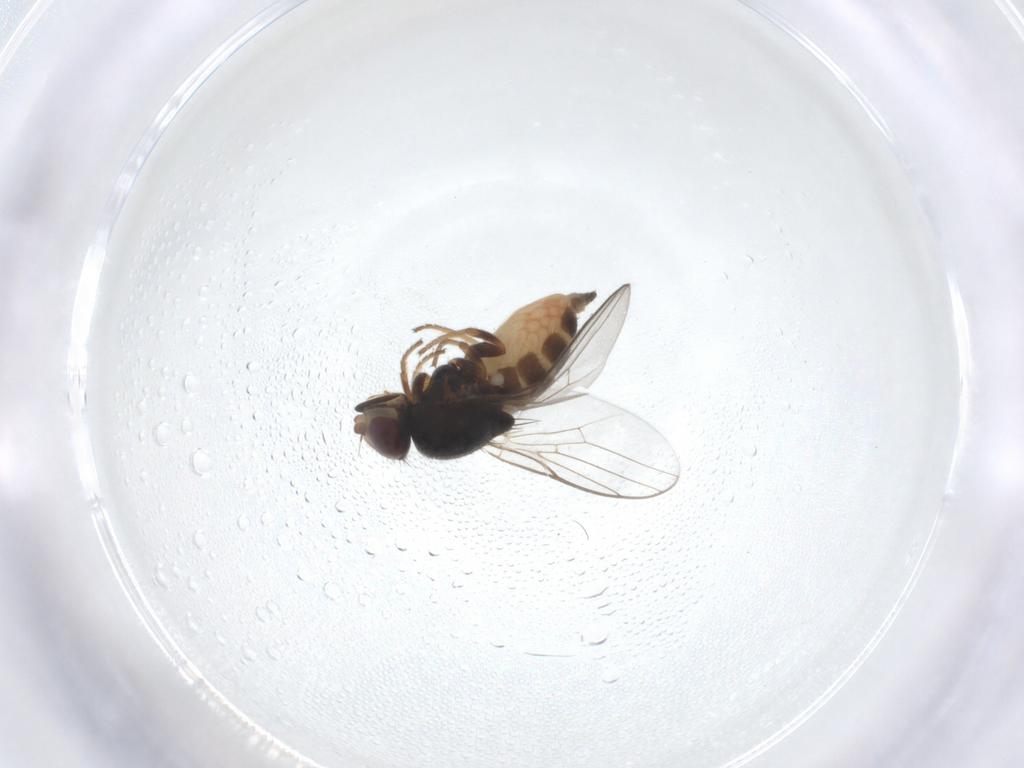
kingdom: Animalia
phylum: Arthropoda
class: Insecta
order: Diptera
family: Chloropidae
